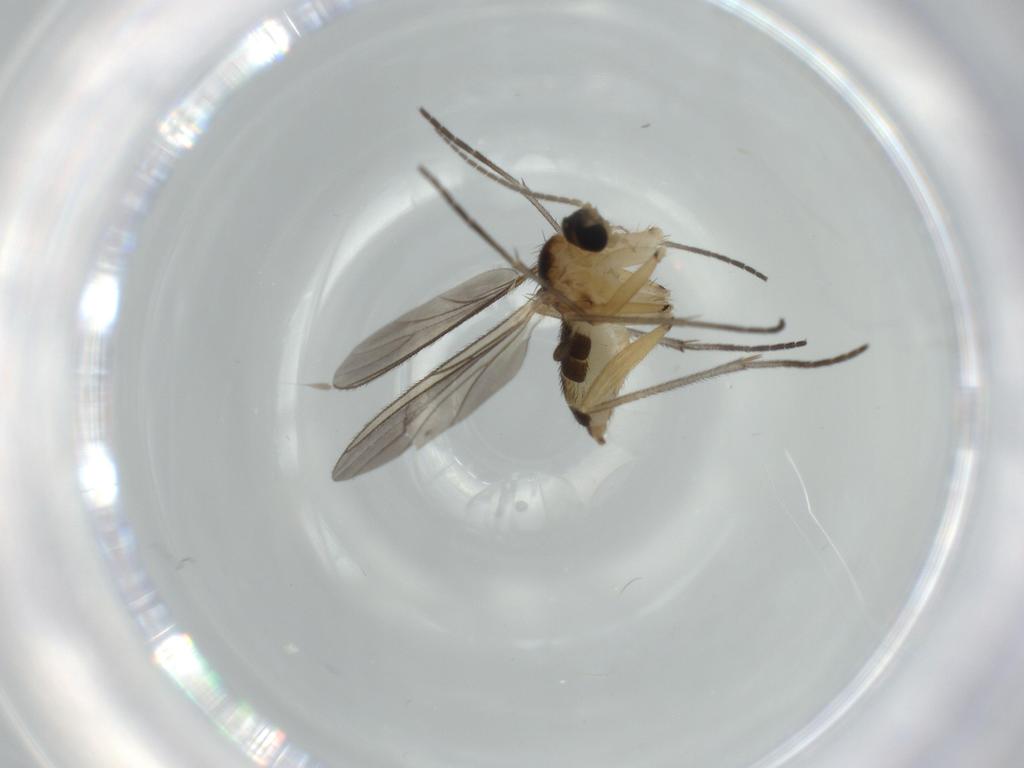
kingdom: Animalia
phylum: Arthropoda
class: Insecta
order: Diptera
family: Sciaridae
